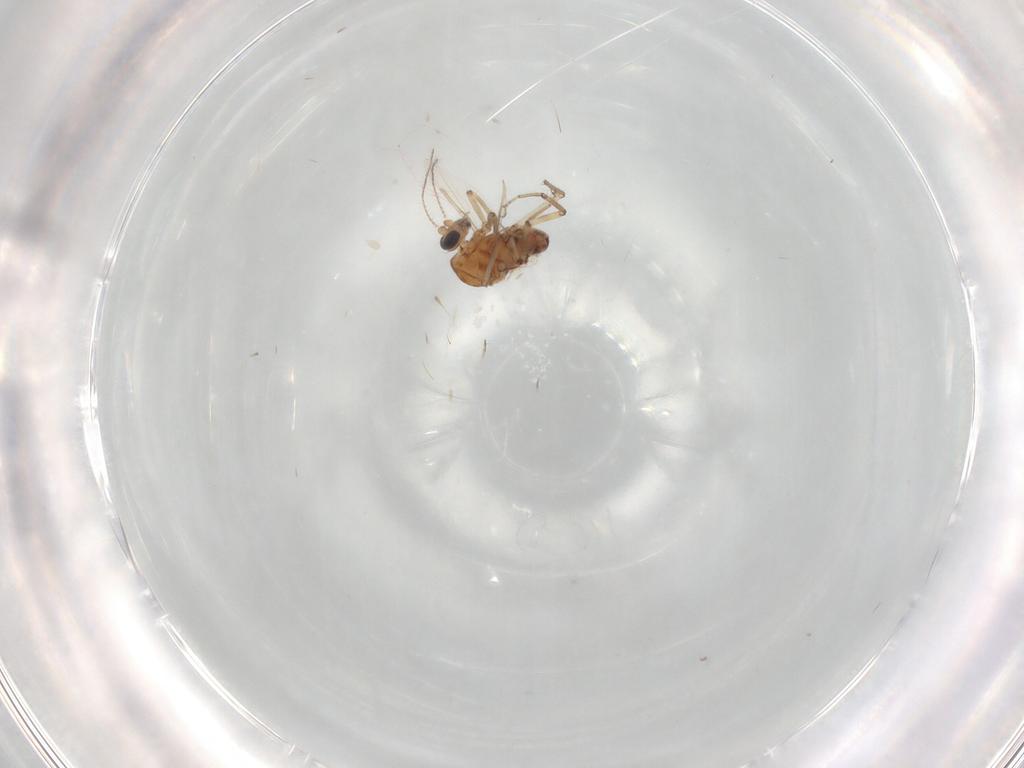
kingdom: Animalia
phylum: Arthropoda
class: Insecta
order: Diptera
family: Ceratopogonidae
